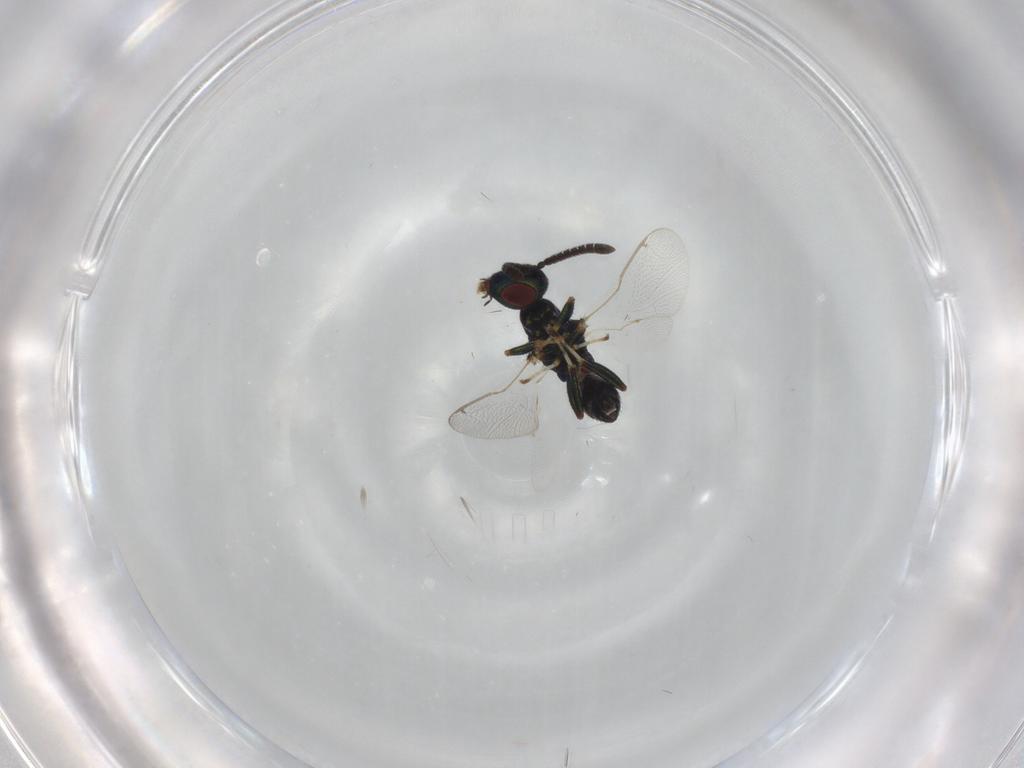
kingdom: Animalia
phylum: Arthropoda
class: Insecta
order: Hymenoptera
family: Torymidae
